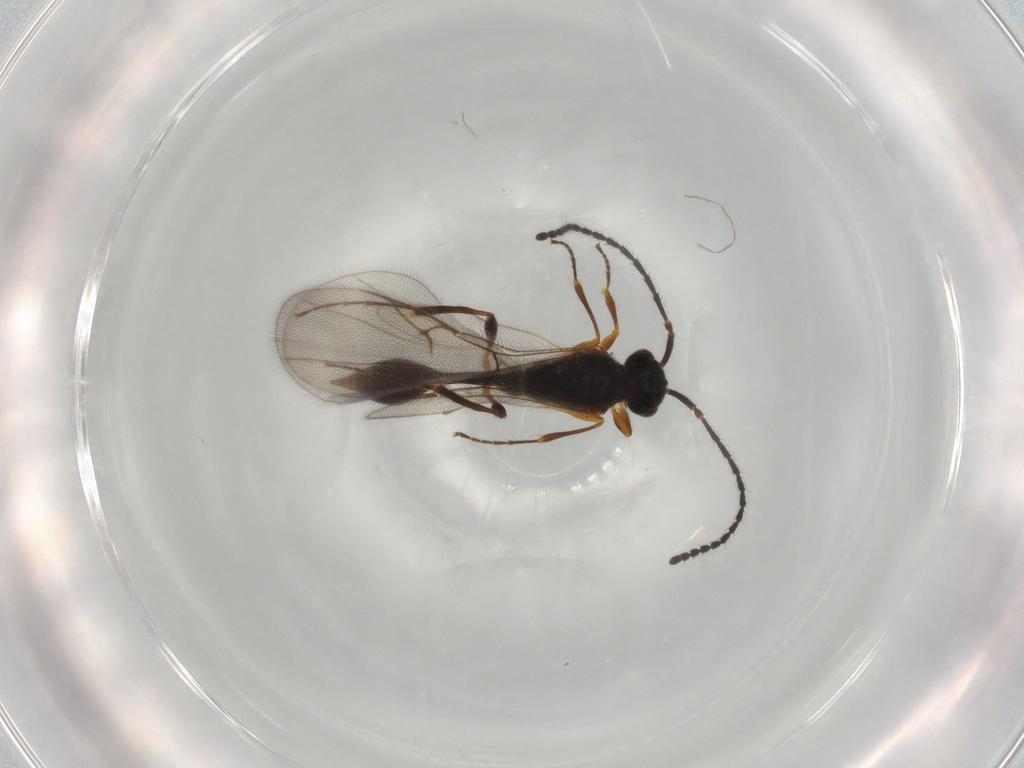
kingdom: Animalia
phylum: Arthropoda
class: Insecta
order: Hymenoptera
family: Diapriidae
